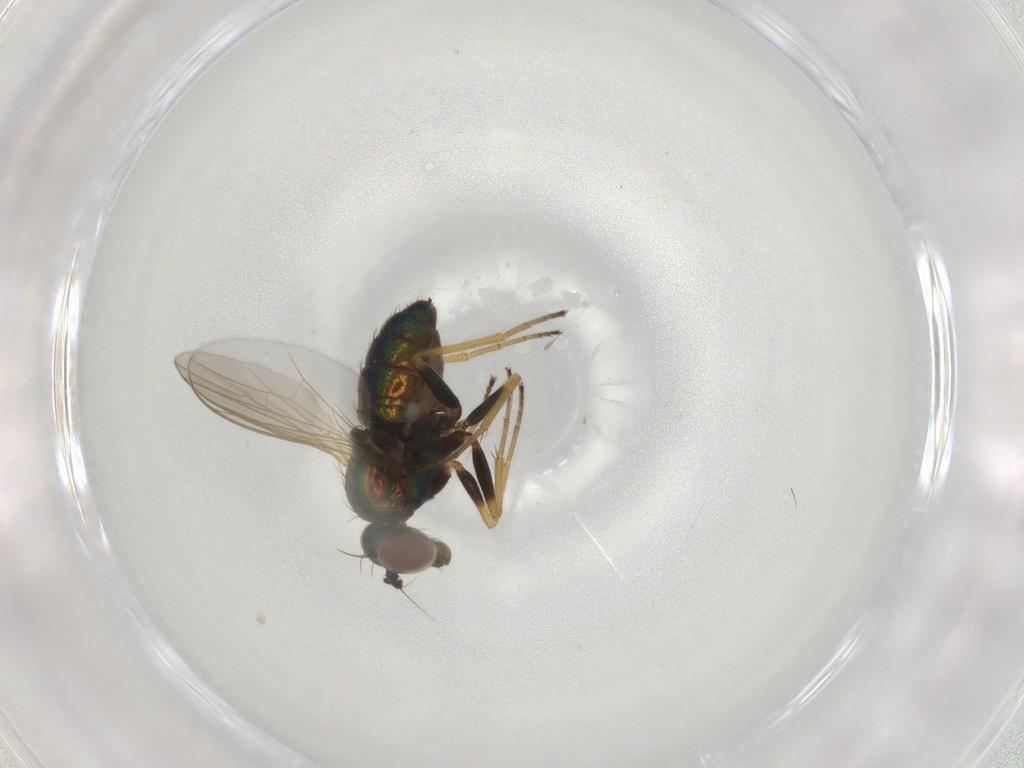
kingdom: Animalia
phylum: Arthropoda
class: Insecta
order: Diptera
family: Dolichopodidae
